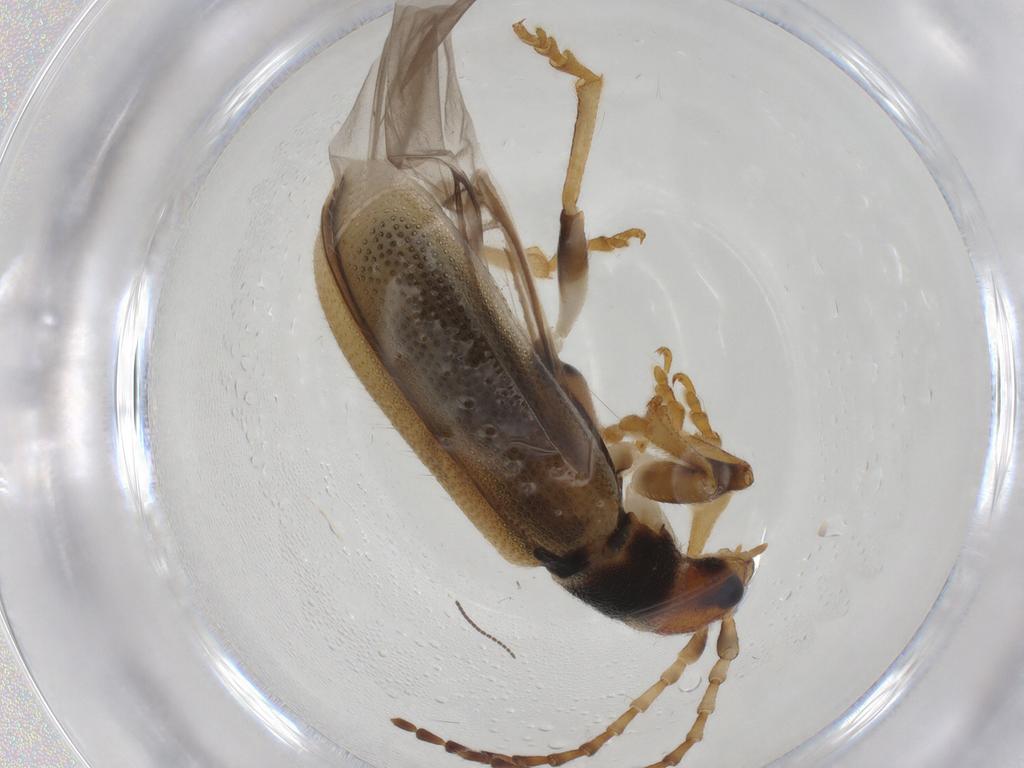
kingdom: Animalia
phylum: Arthropoda
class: Insecta
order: Coleoptera
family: Chrysomelidae
